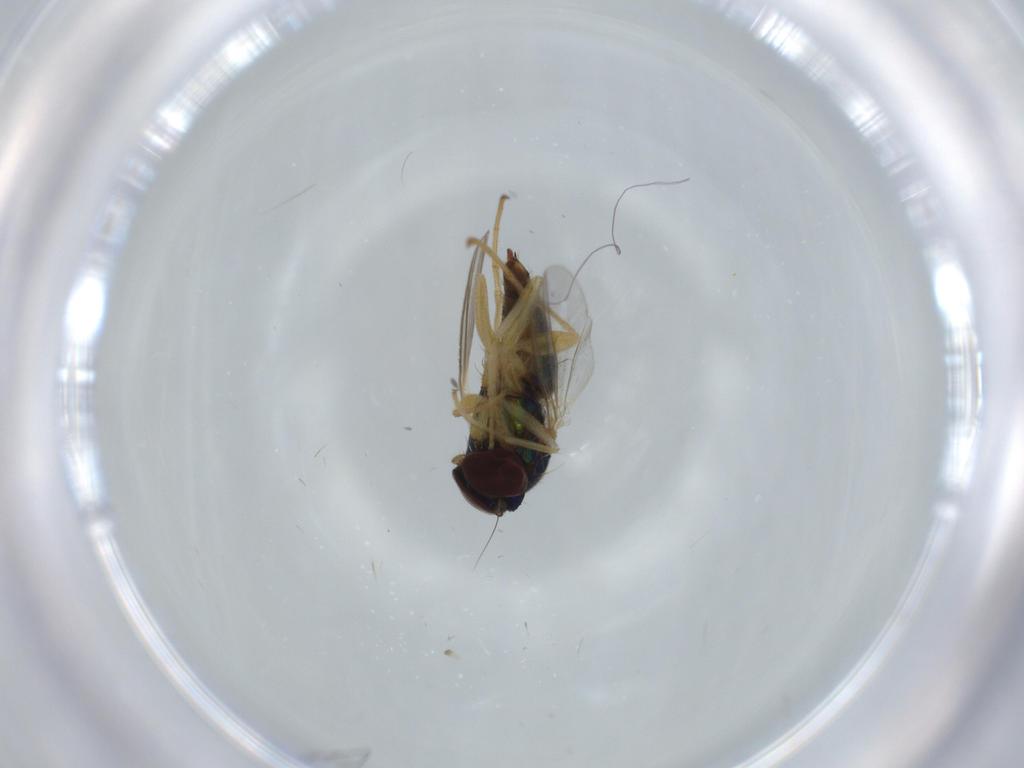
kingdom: Animalia
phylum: Arthropoda
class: Insecta
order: Diptera
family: Dolichopodidae
